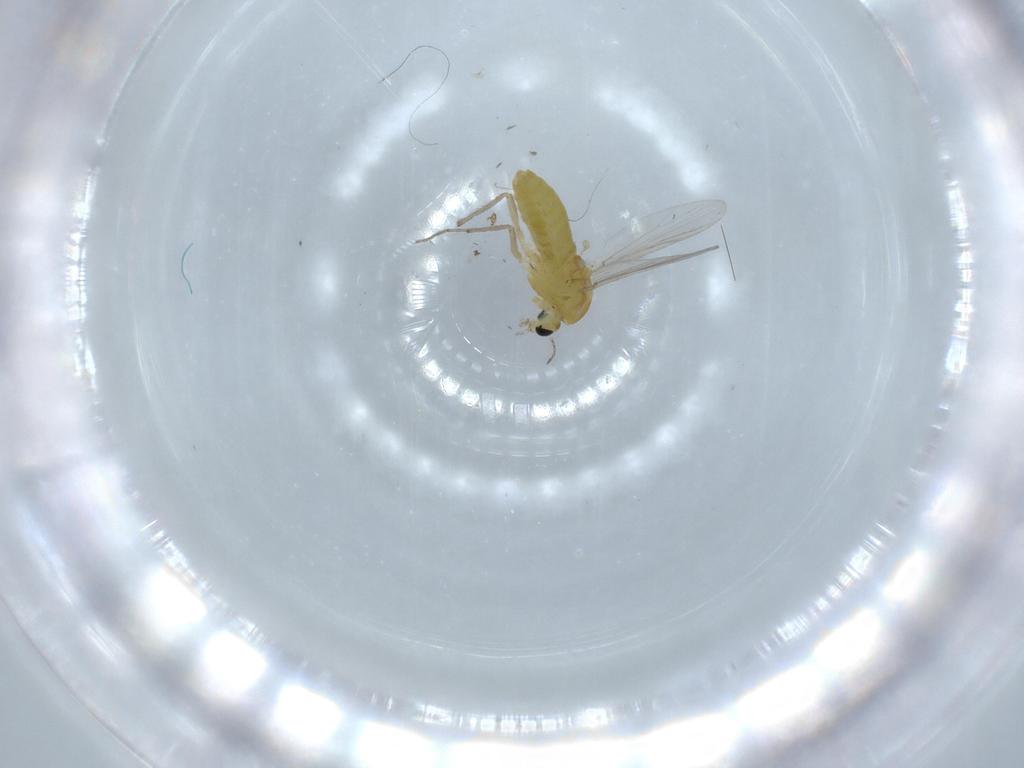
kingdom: Animalia
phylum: Arthropoda
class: Insecta
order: Diptera
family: Chironomidae
